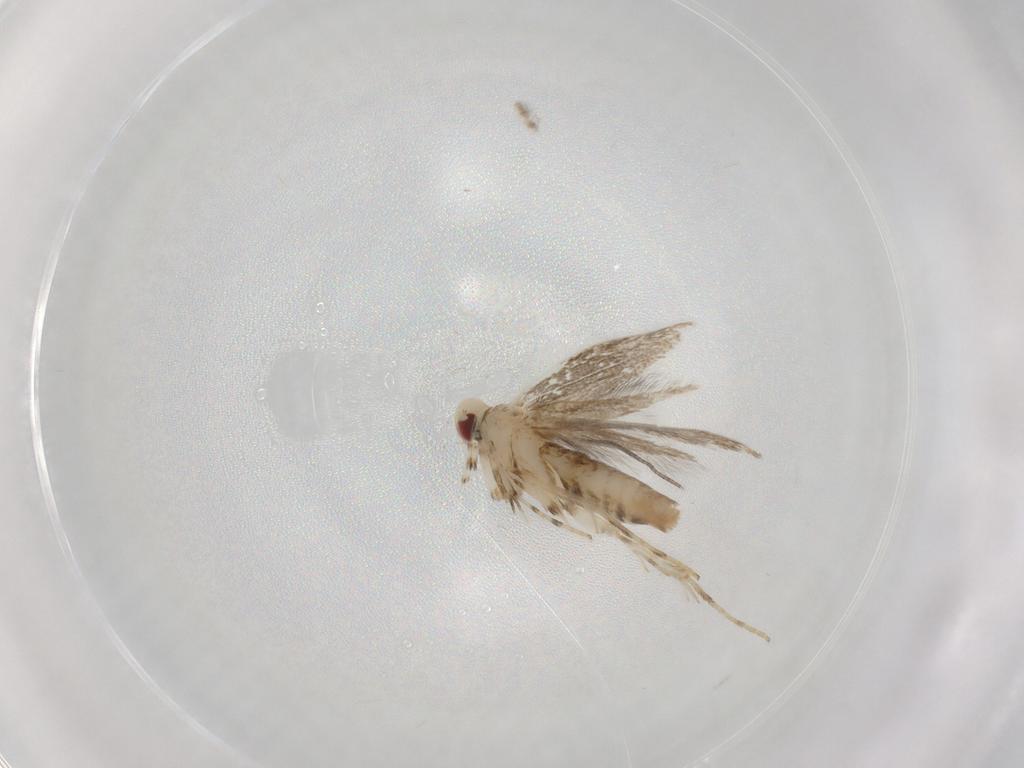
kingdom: Animalia
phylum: Arthropoda
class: Insecta
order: Lepidoptera
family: Gracillariidae
